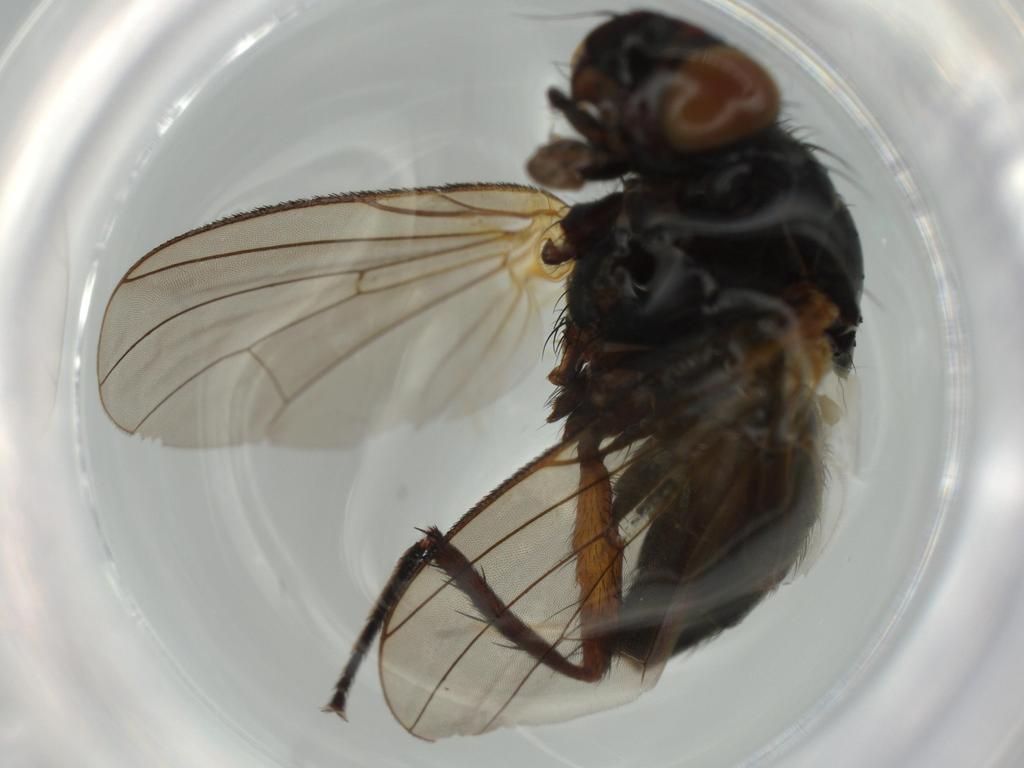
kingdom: Animalia
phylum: Arthropoda
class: Insecta
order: Diptera
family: Anthomyiidae
